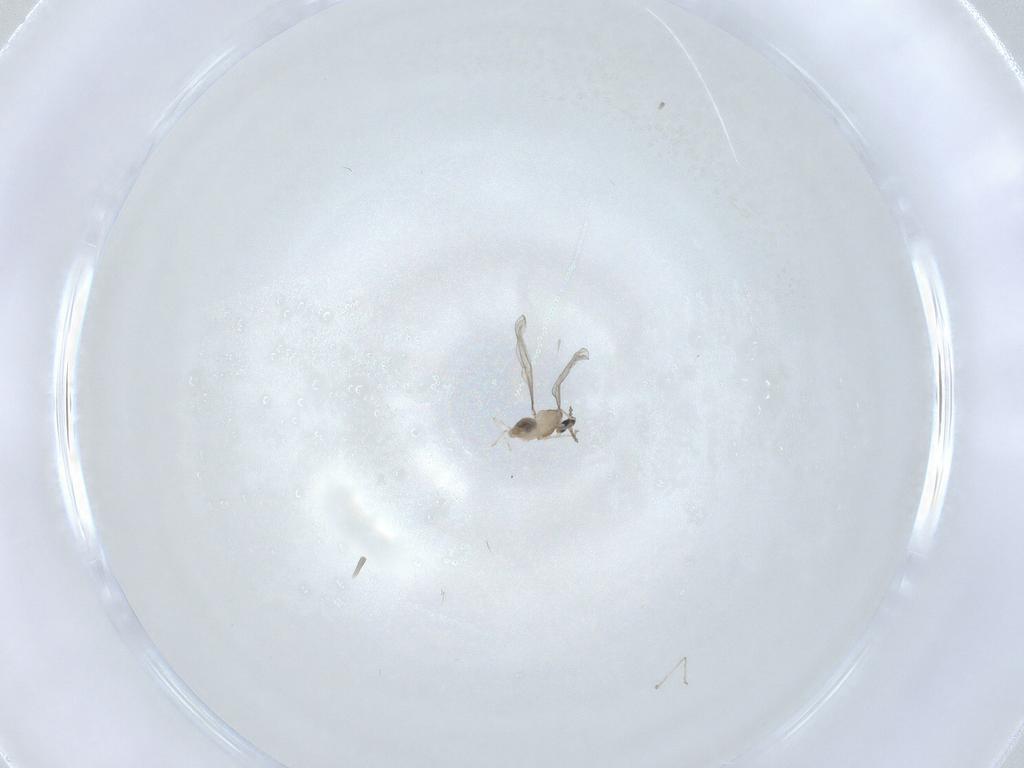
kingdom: Animalia
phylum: Arthropoda
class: Insecta
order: Diptera
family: Cecidomyiidae
